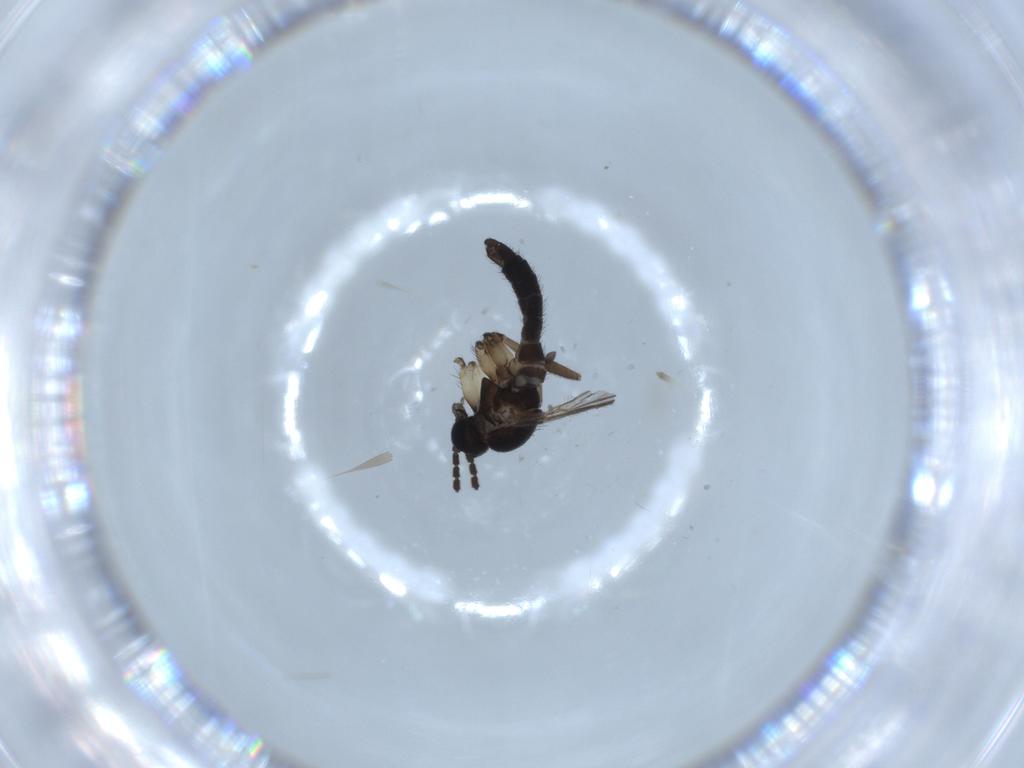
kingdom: Animalia
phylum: Arthropoda
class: Insecta
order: Diptera
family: Sciaridae
